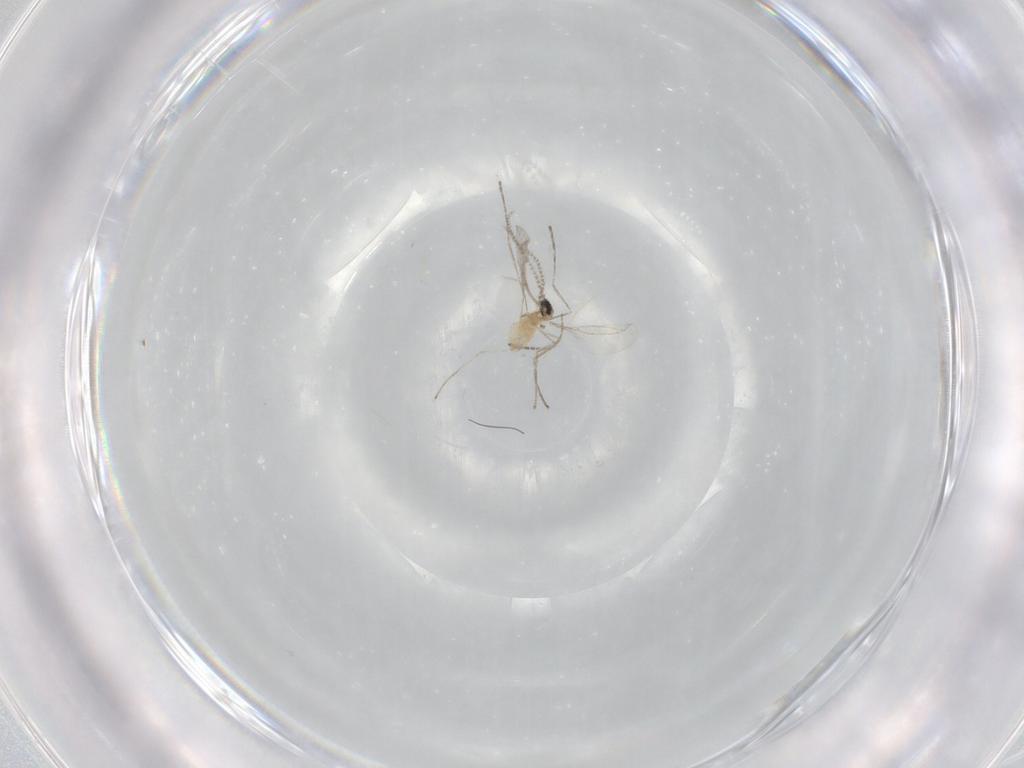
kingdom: Animalia
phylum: Arthropoda
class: Insecta
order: Diptera
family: Cecidomyiidae
